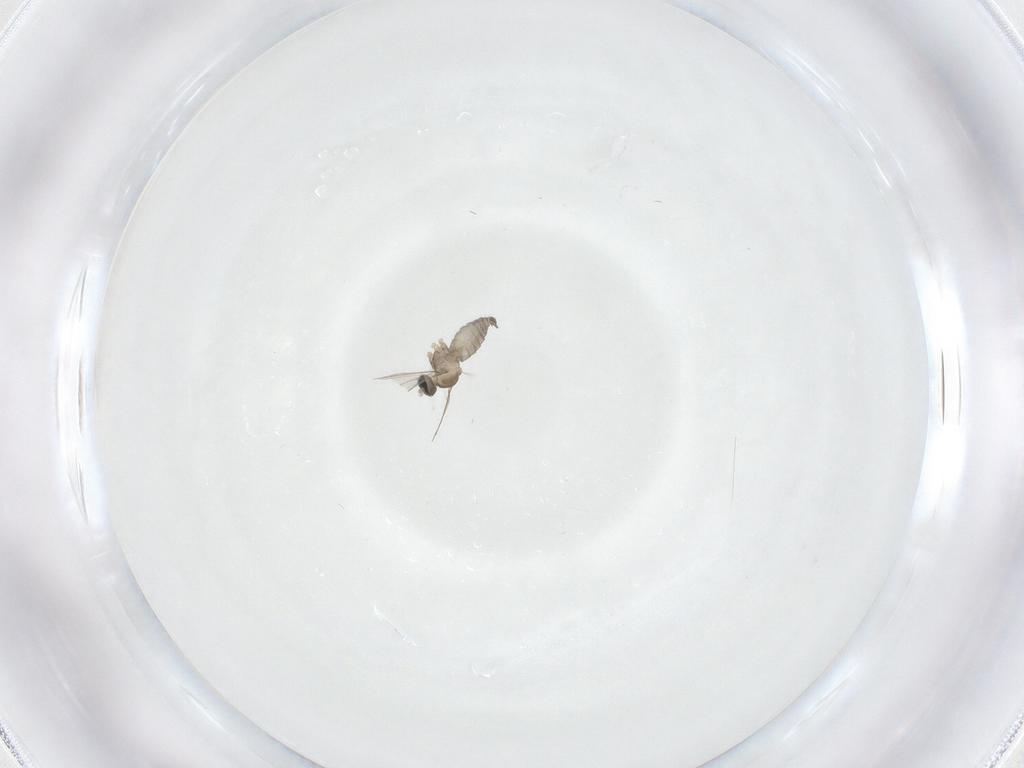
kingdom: Animalia
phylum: Arthropoda
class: Insecta
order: Diptera
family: Cecidomyiidae
